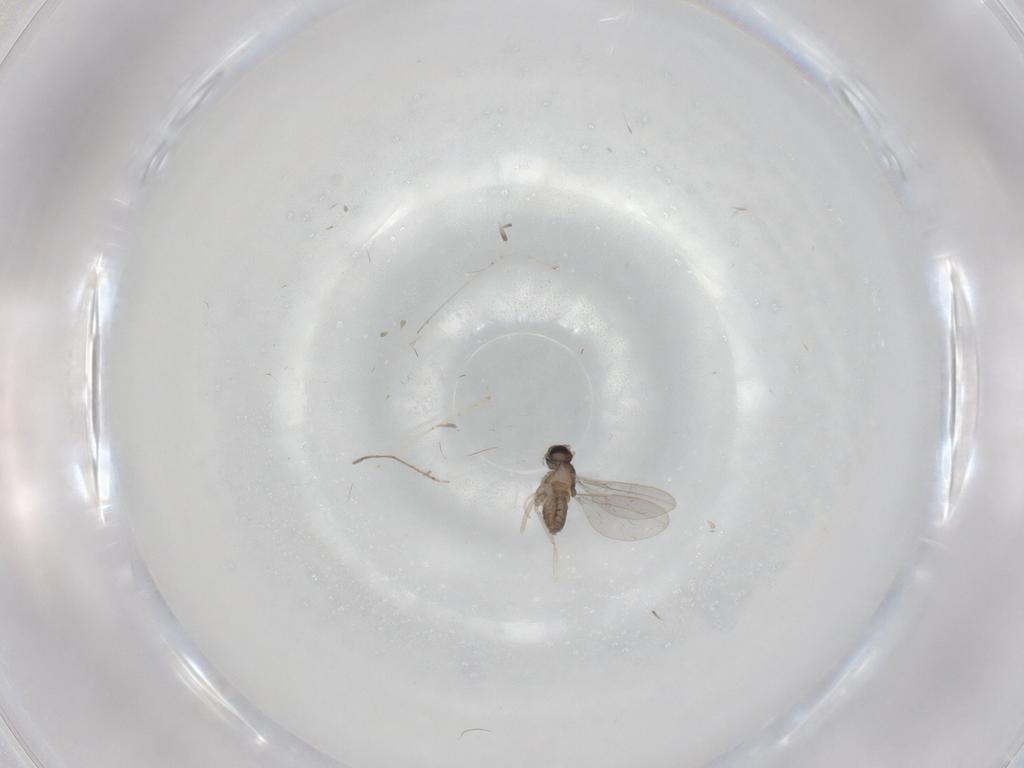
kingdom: Animalia
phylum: Arthropoda
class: Insecta
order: Diptera
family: Cecidomyiidae
